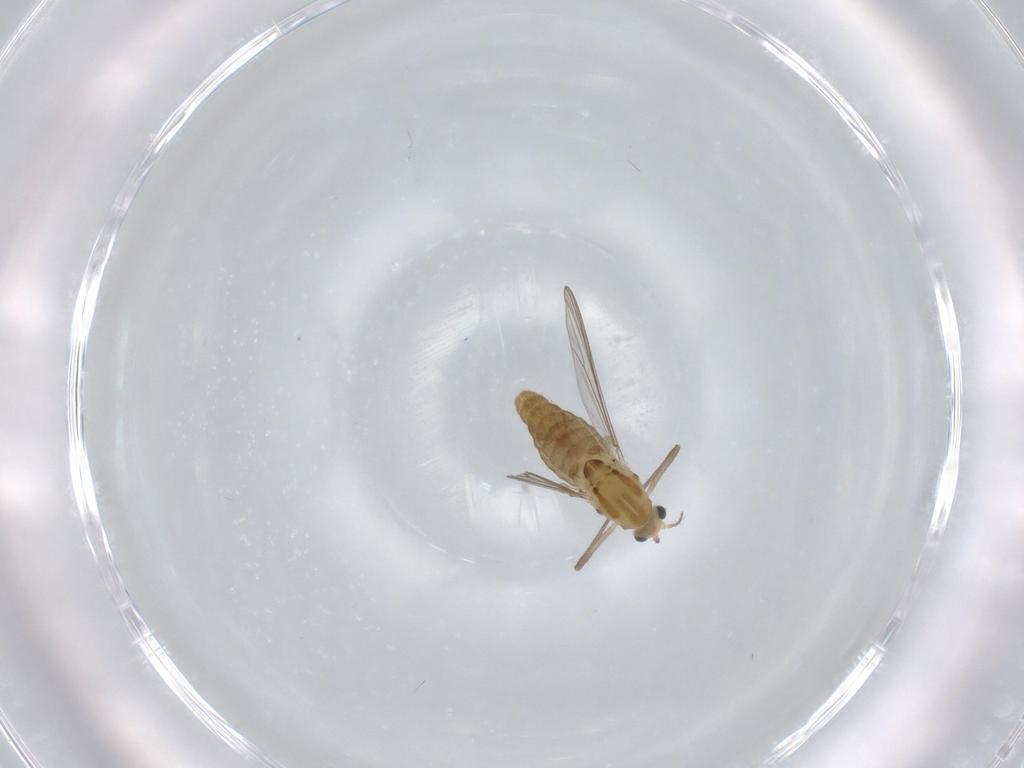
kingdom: Animalia
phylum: Arthropoda
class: Insecta
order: Diptera
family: Chironomidae
